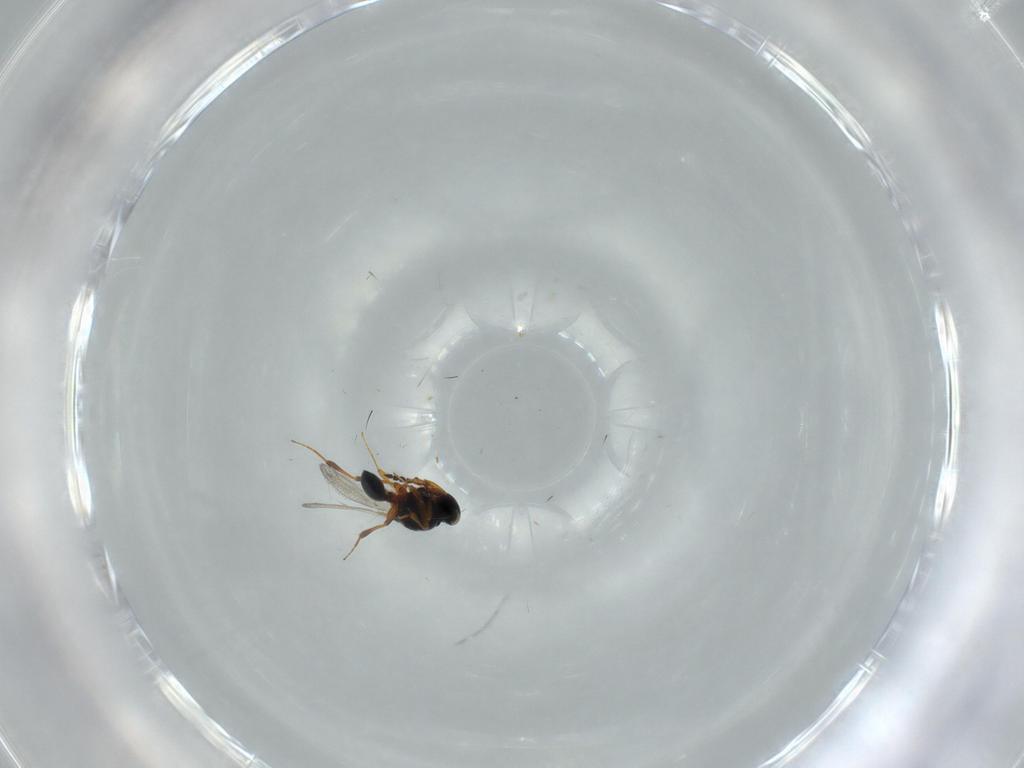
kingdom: Animalia
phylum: Arthropoda
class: Insecta
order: Hymenoptera
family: Platygastridae
